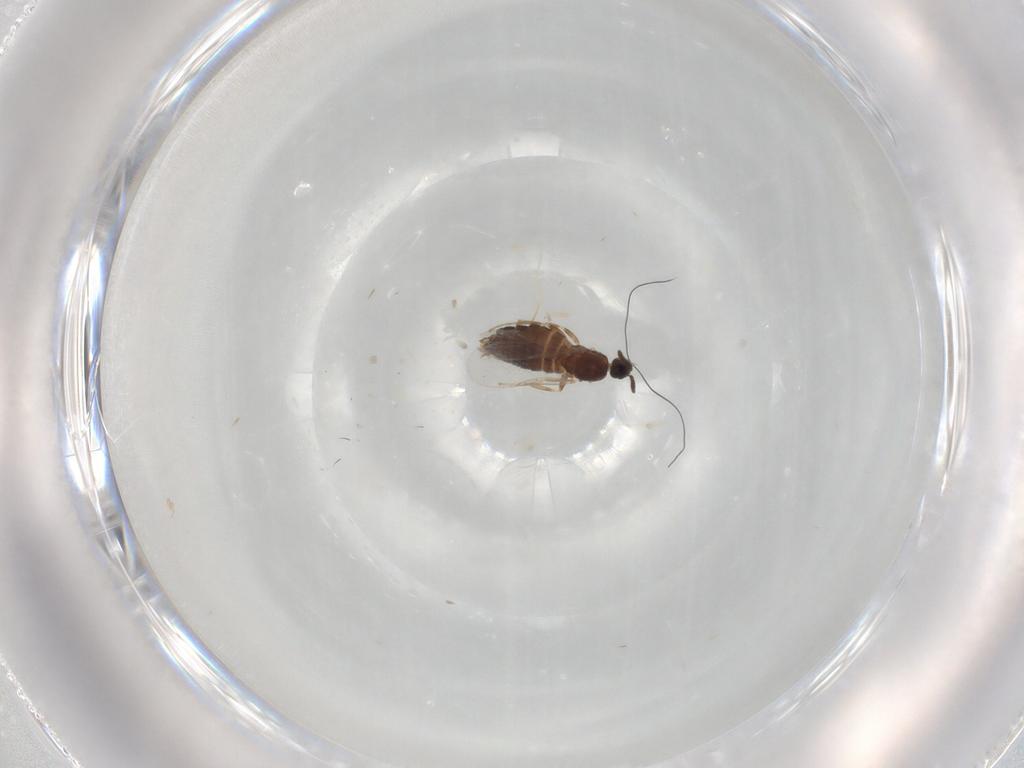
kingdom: Animalia
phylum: Arthropoda
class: Insecta
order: Diptera
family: Scatopsidae
